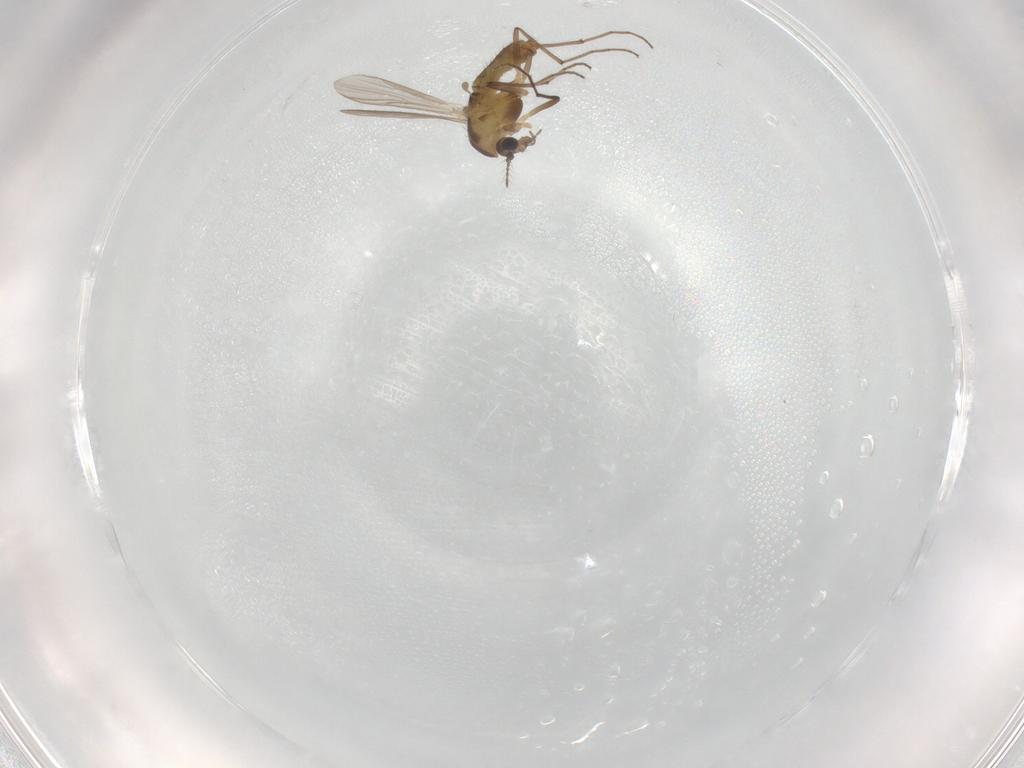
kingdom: Animalia
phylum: Arthropoda
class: Insecta
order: Diptera
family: Chironomidae
